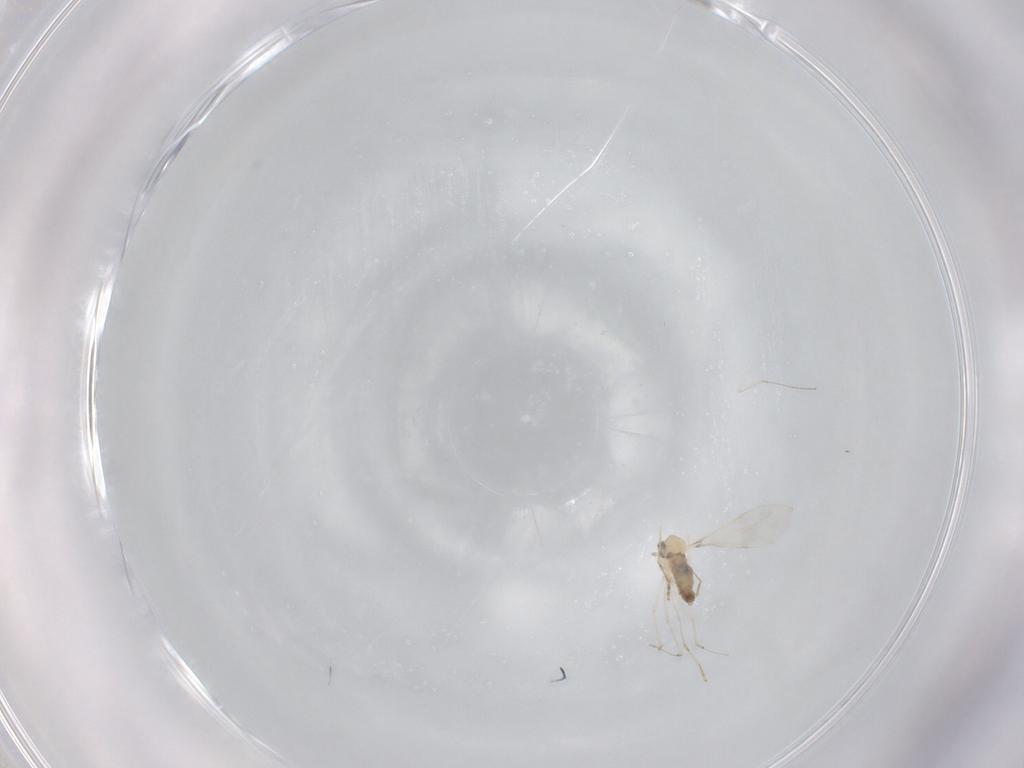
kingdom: Animalia
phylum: Arthropoda
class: Insecta
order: Diptera
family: Cecidomyiidae
